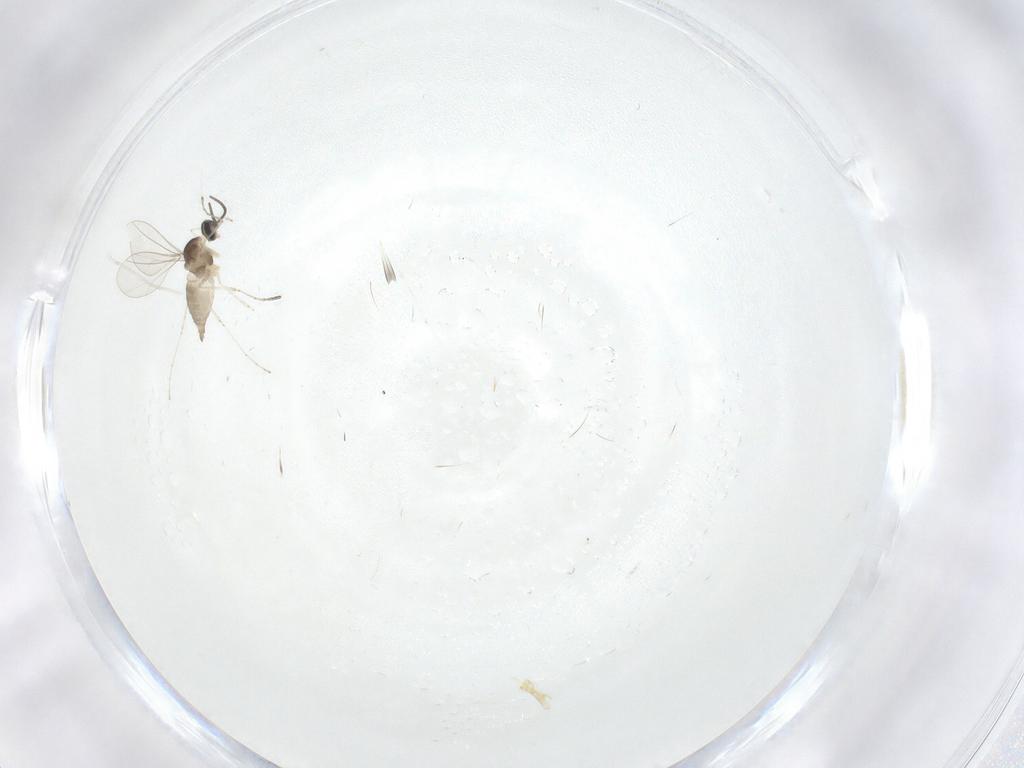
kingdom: Animalia
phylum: Arthropoda
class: Insecta
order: Diptera
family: Cecidomyiidae
